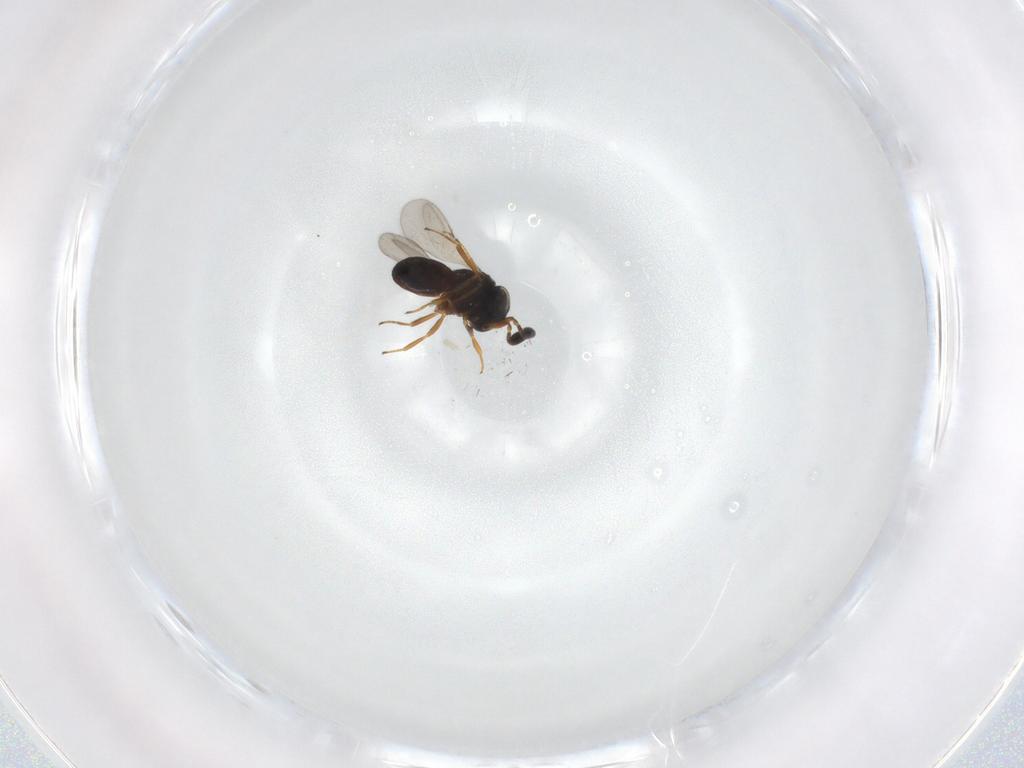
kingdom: Animalia
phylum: Arthropoda
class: Insecta
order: Hymenoptera
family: Scelionidae
